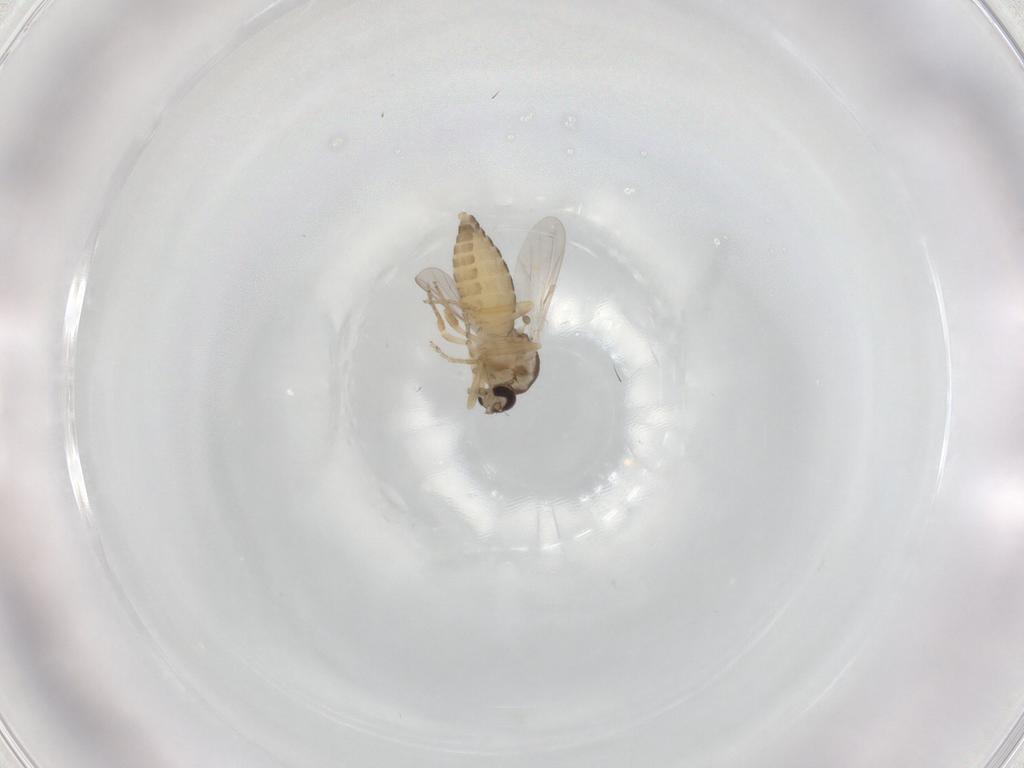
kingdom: Animalia
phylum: Arthropoda
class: Insecta
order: Diptera
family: Ceratopogonidae
